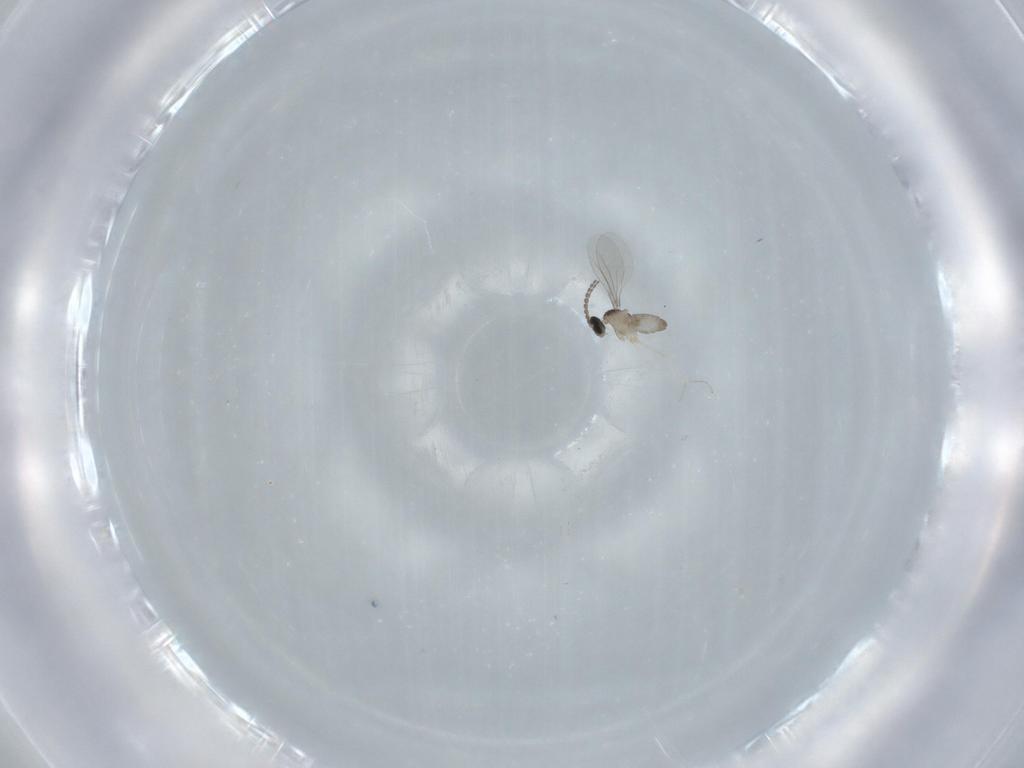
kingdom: Animalia
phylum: Arthropoda
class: Insecta
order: Diptera
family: Cecidomyiidae
